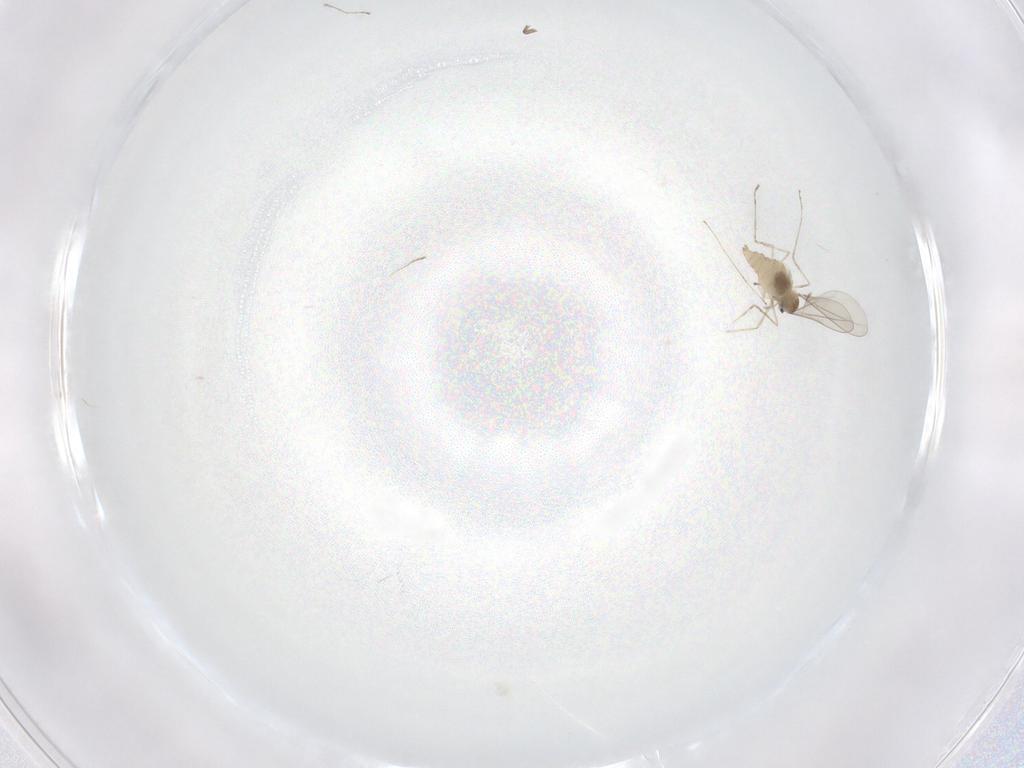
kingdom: Animalia
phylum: Arthropoda
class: Insecta
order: Diptera
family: Cecidomyiidae
